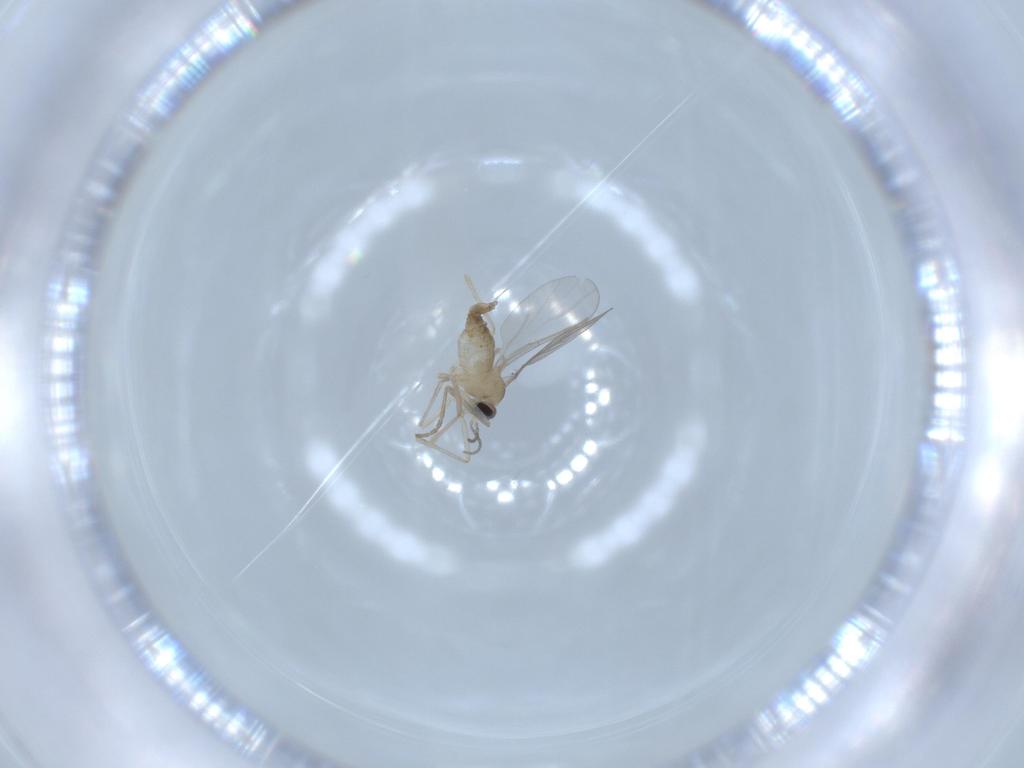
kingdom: Animalia
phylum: Arthropoda
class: Insecta
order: Diptera
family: Cecidomyiidae
